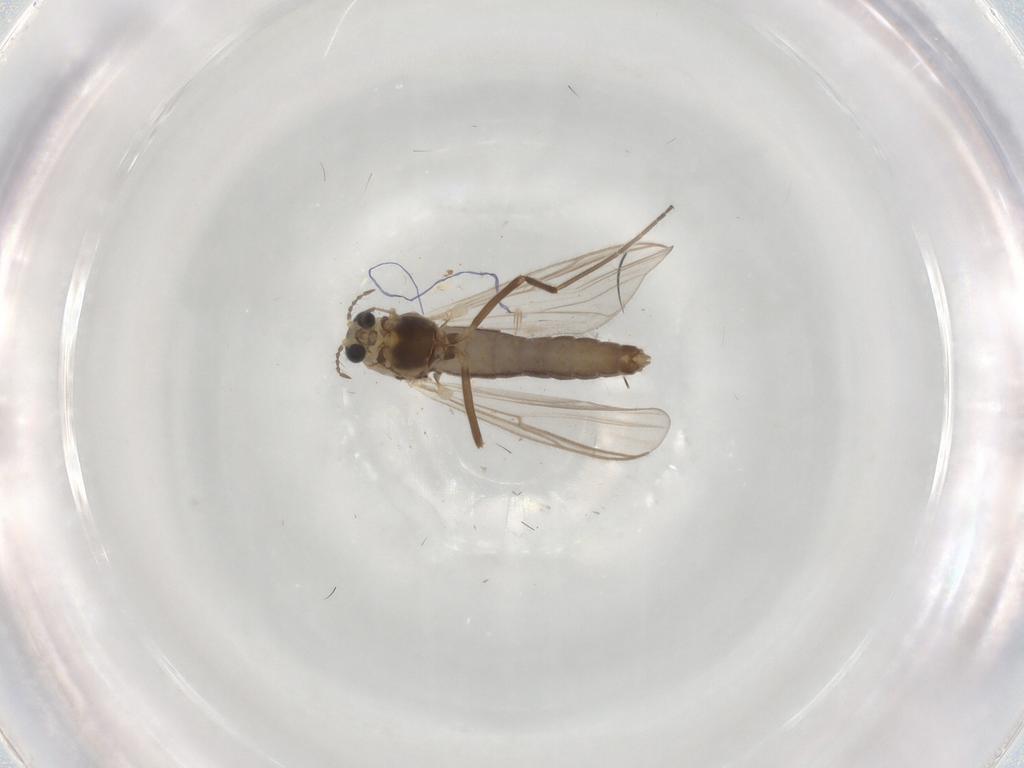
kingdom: Animalia
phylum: Arthropoda
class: Insecta
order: Diptera
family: Chironomidae
